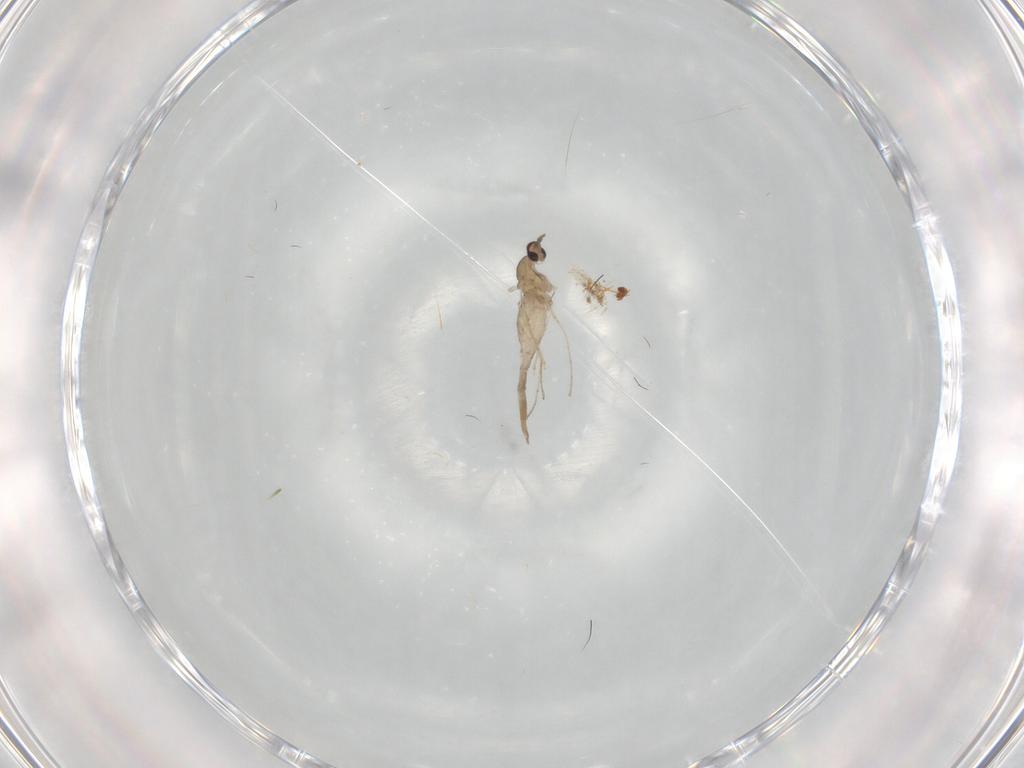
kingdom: Animalia
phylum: Arthropoda
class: Insecta
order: Diptera
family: Cecidomyiidae
